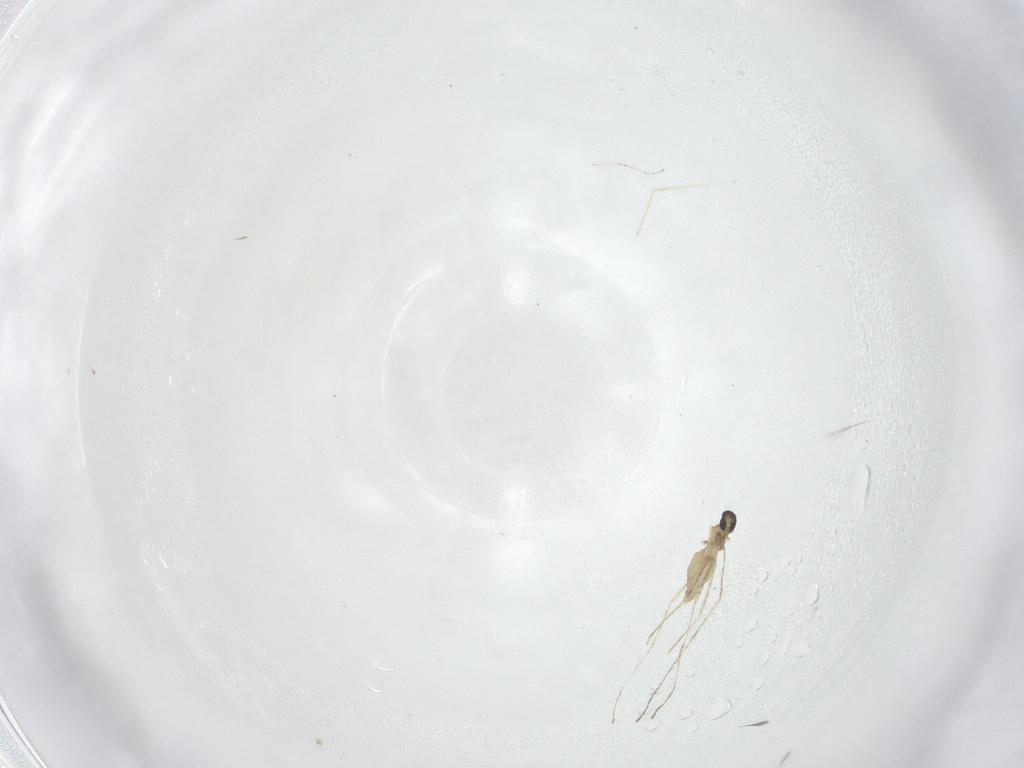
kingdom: Animalia
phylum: Arthropoda
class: Insecta
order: Diptera
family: Cecidomyiidae
